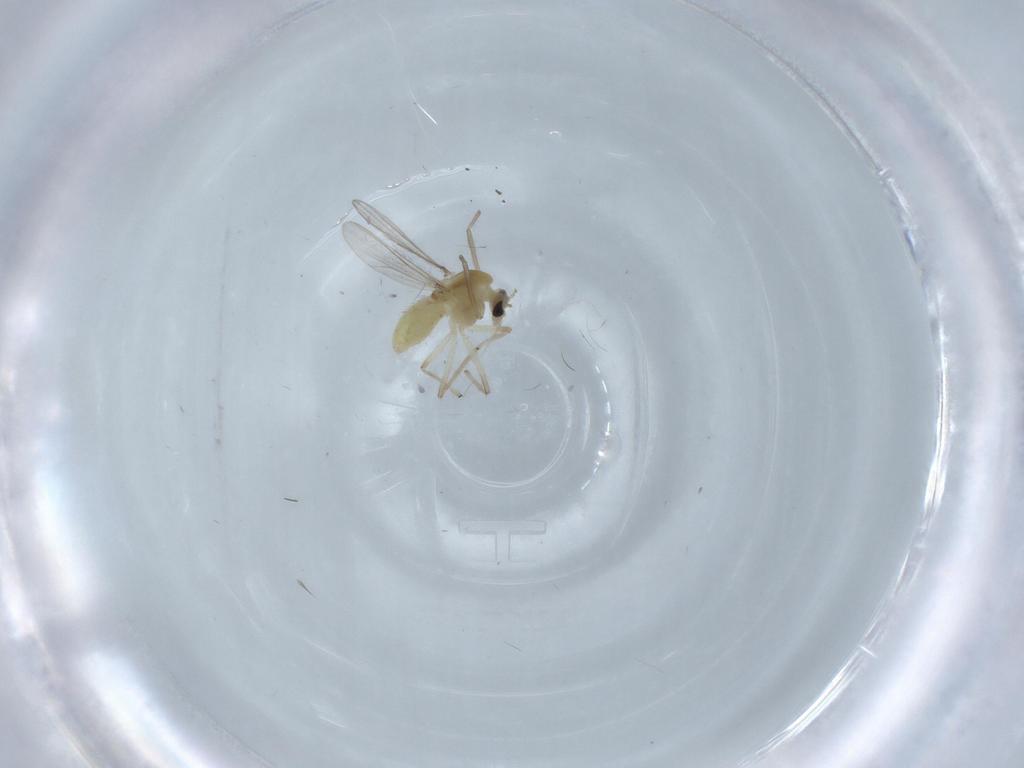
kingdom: Animalia
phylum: Arthropoda
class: Insecta
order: Diptera
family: Chironomidae
